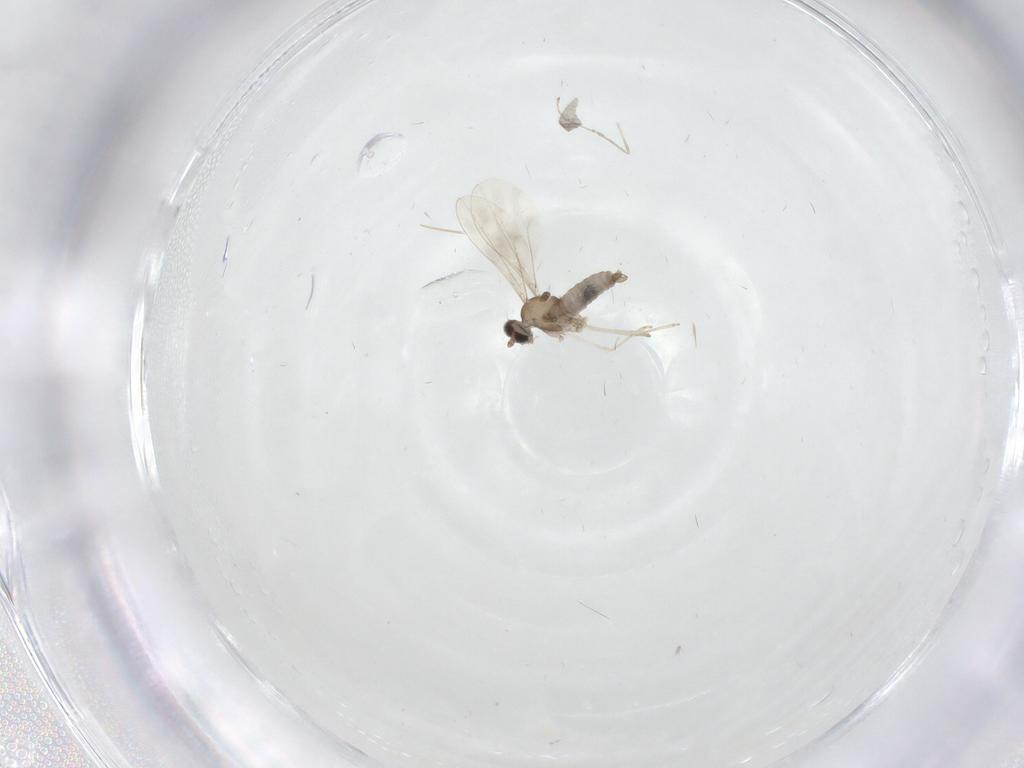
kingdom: Animalia
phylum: Arthropoda
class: Insecta
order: Diptera
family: Cecidomyiidae
